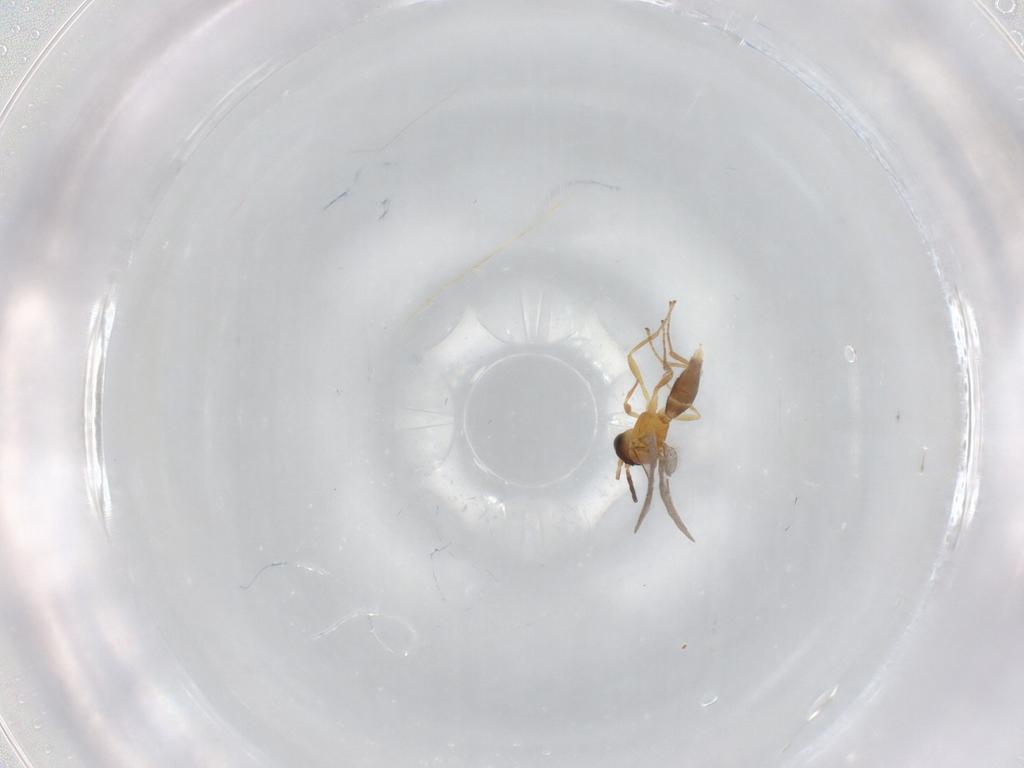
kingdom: Animalia
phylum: Arthropoda
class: Insecta
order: Hymenoptera
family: Braconidae
